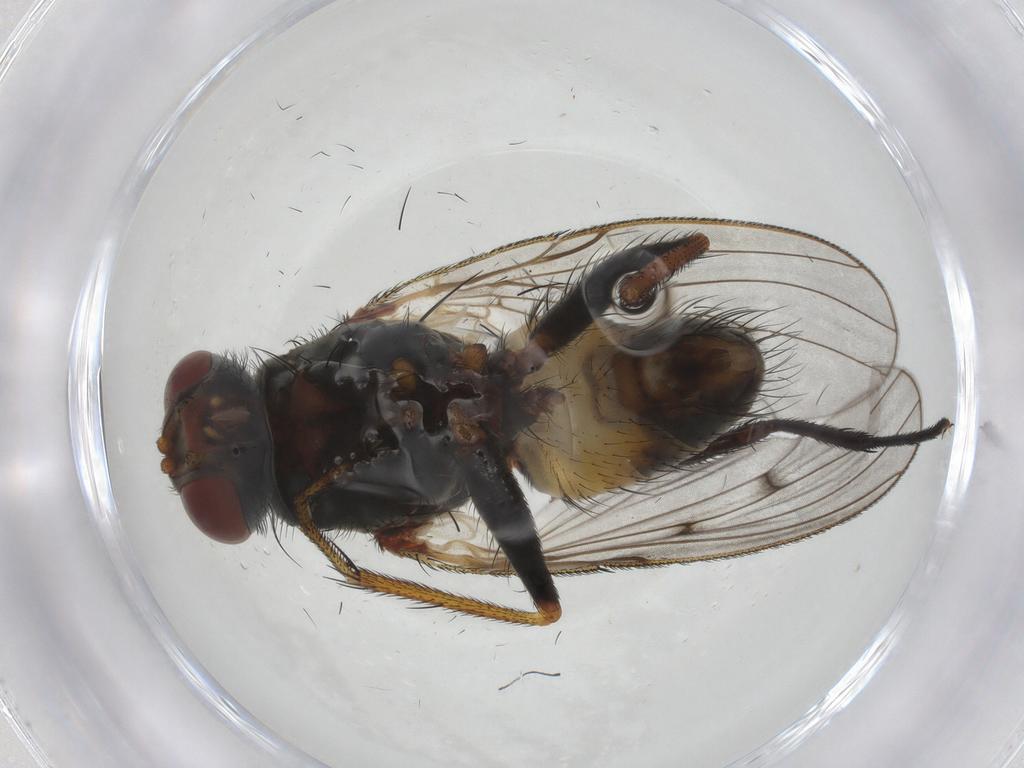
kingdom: Animalia
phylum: Arthropoda
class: Insecta
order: Diptera
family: Muscidae
